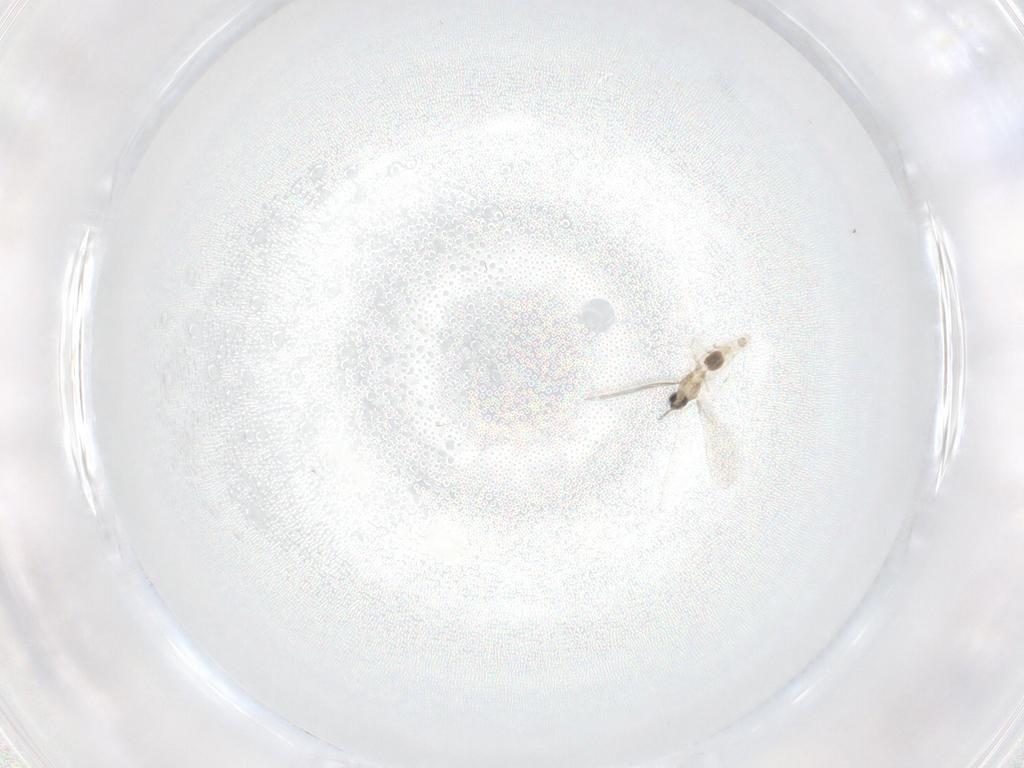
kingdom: Animalia
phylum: Arthropoda
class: Insecta
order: Diptera
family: Cecidomyiidae
